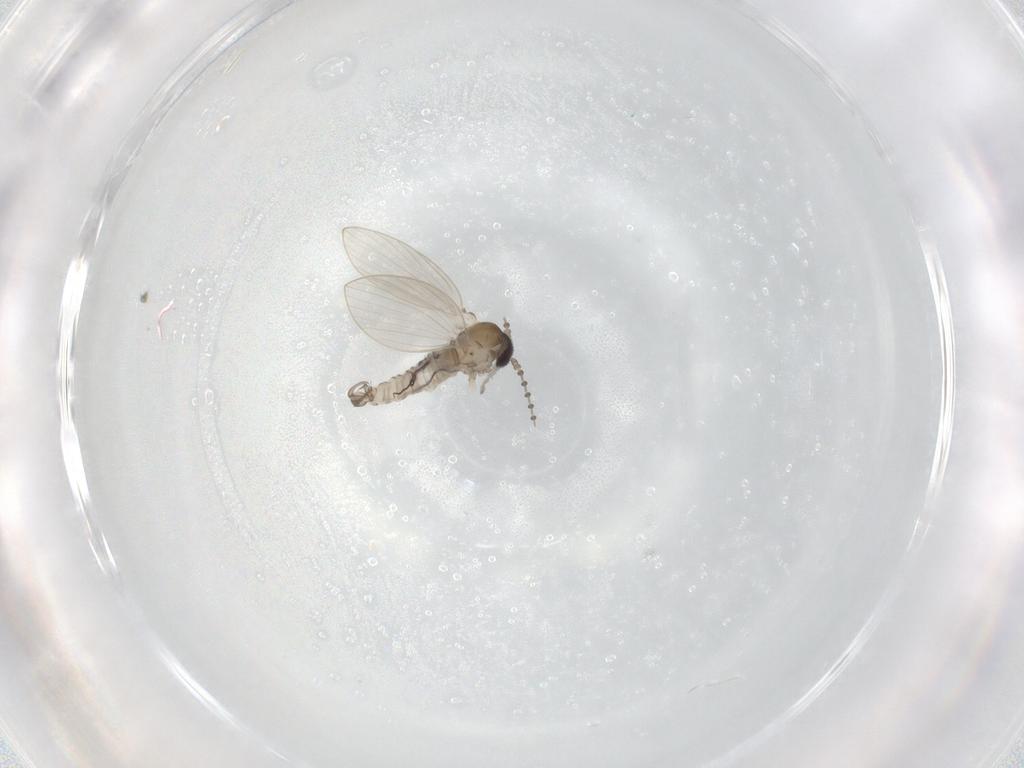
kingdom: Animalia
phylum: Arthropoda
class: Insecta
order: Diptera
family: Psychodidae
